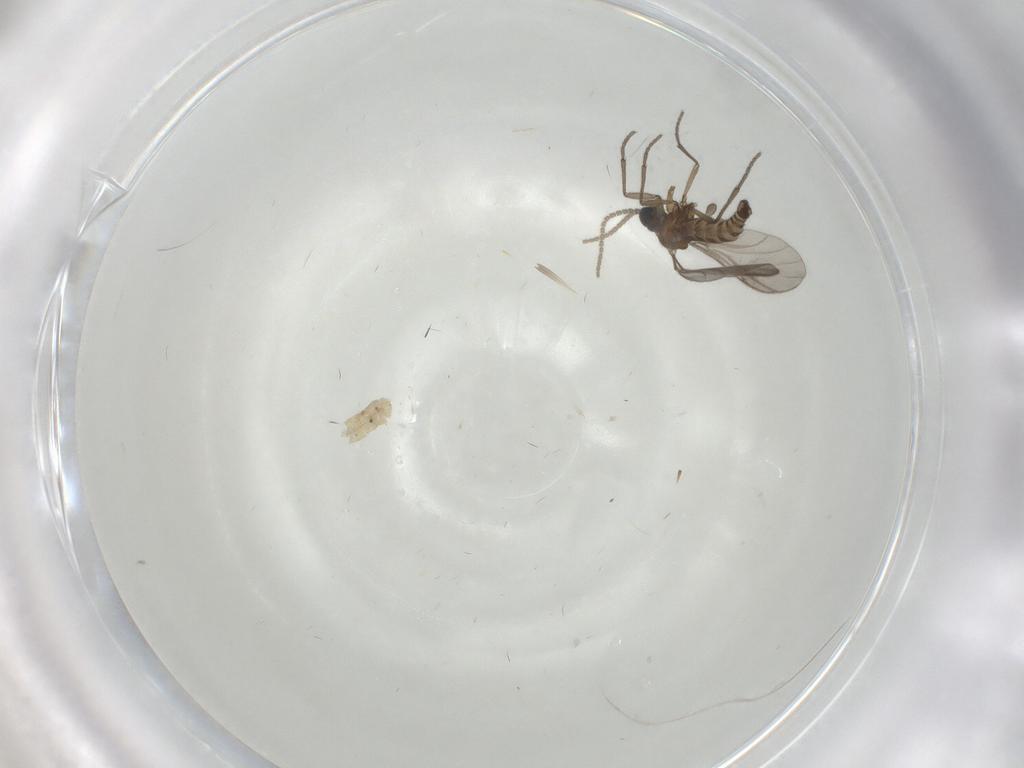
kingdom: Animalia
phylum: Arthropoda
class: Insecta
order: Diptera
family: Sciaridae
